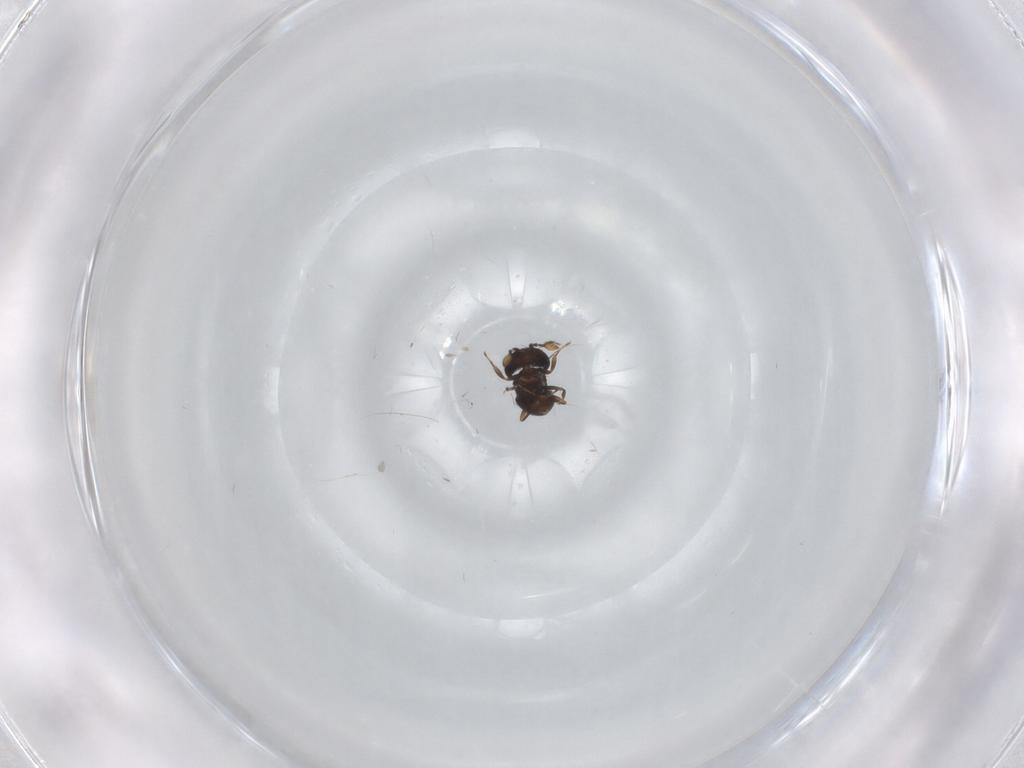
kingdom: Animalia
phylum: Arthropoda
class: Insecta
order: Hymenoptera
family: Scelionidae
